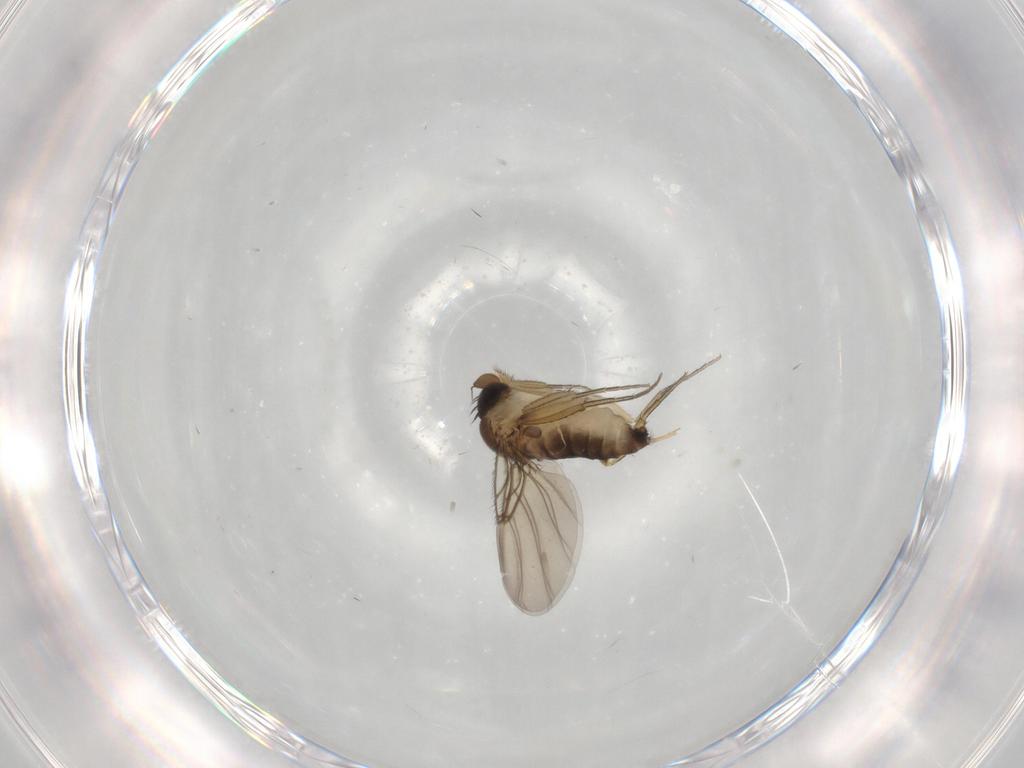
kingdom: Animalia
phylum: Arthropoda
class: Insecta
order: Diptera
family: Phoridae
